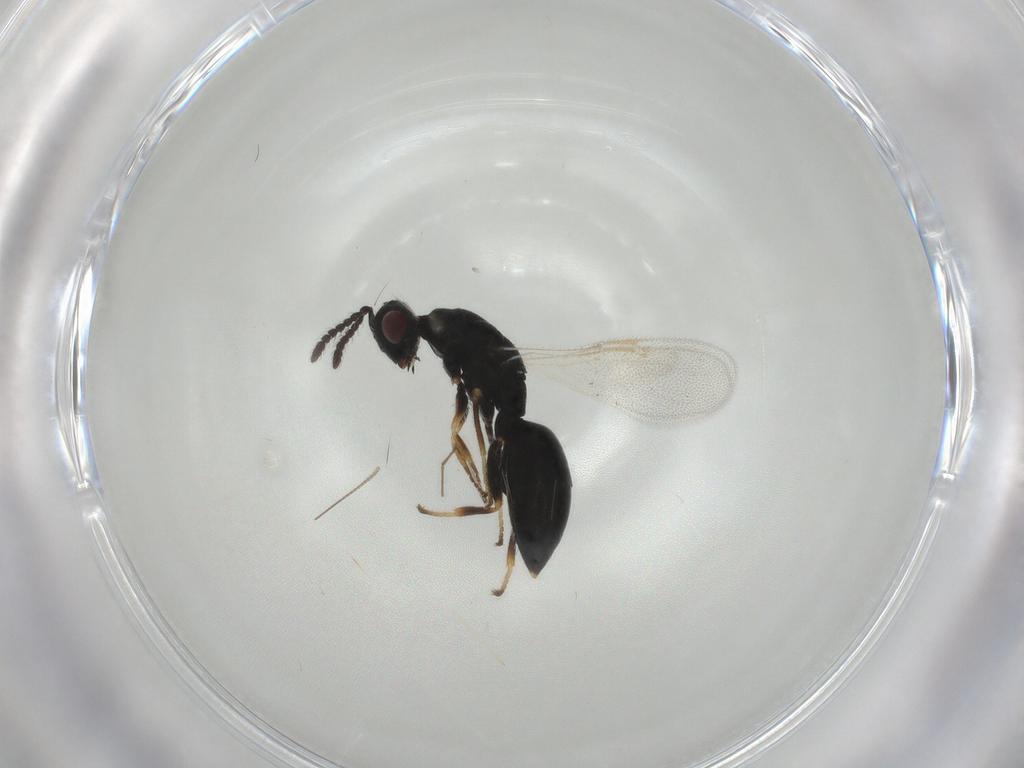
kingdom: Animalia
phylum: Arthropoda
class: Insecta
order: Hymenoptera
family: Eurytomidae
